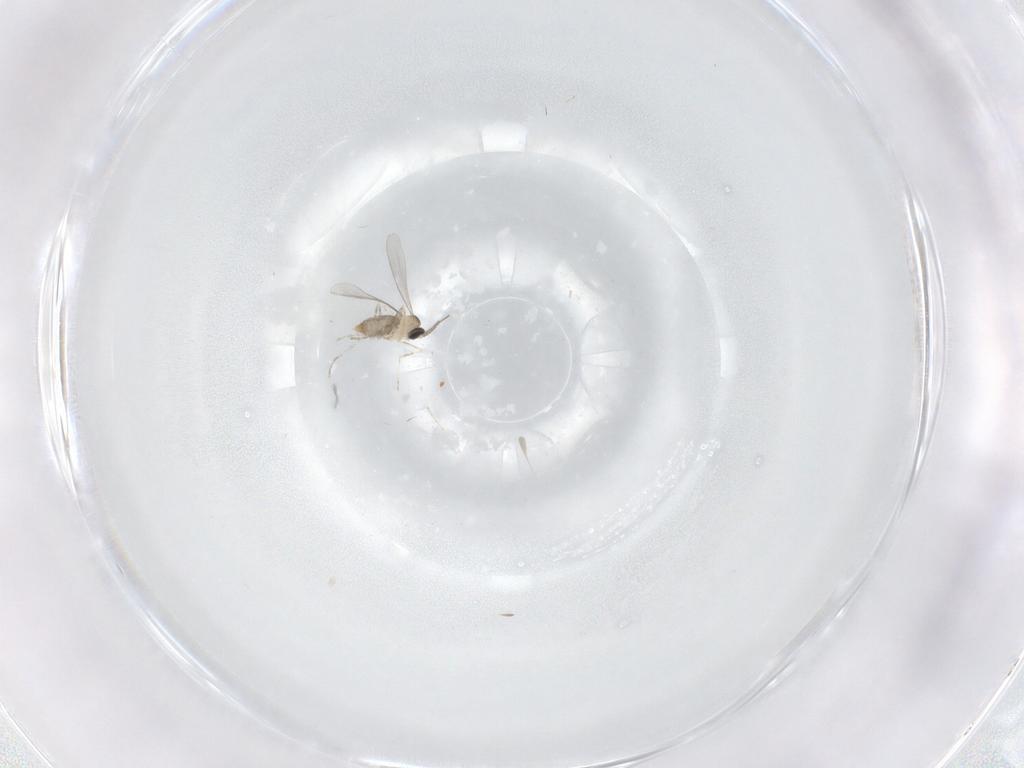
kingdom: Animalia
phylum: Arthropoda
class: Insecta
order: Diptera
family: Cecidomyiidae
